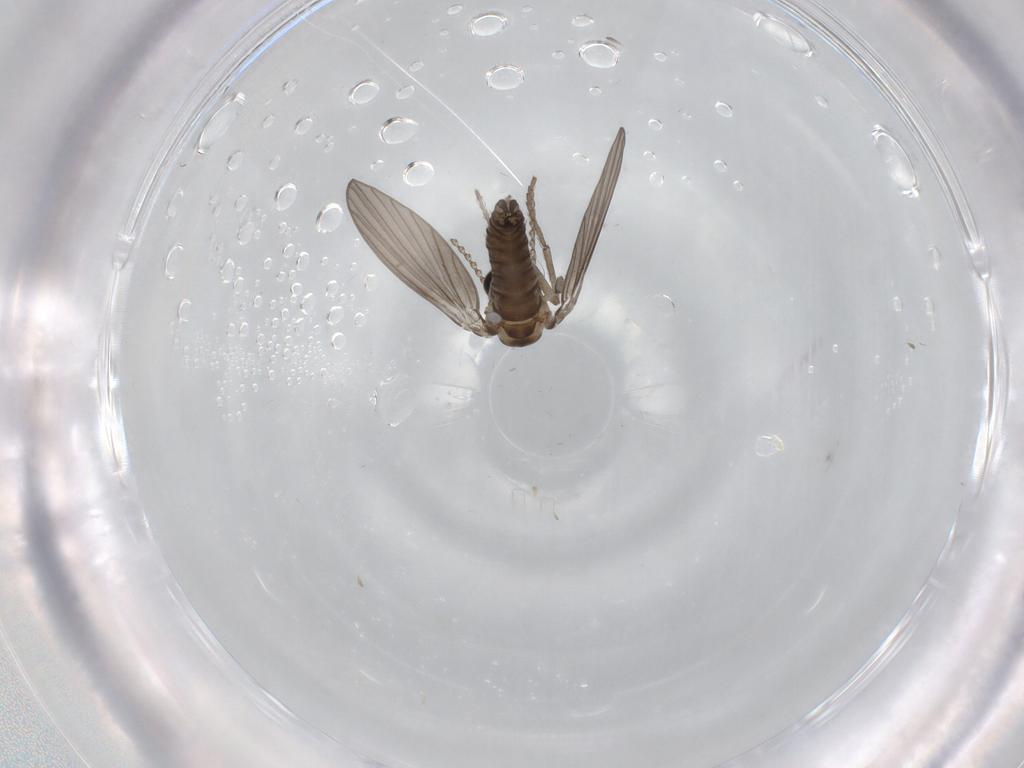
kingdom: Animalia
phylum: Arthropoda
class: Insecta
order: Diptera
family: Psychodidae
